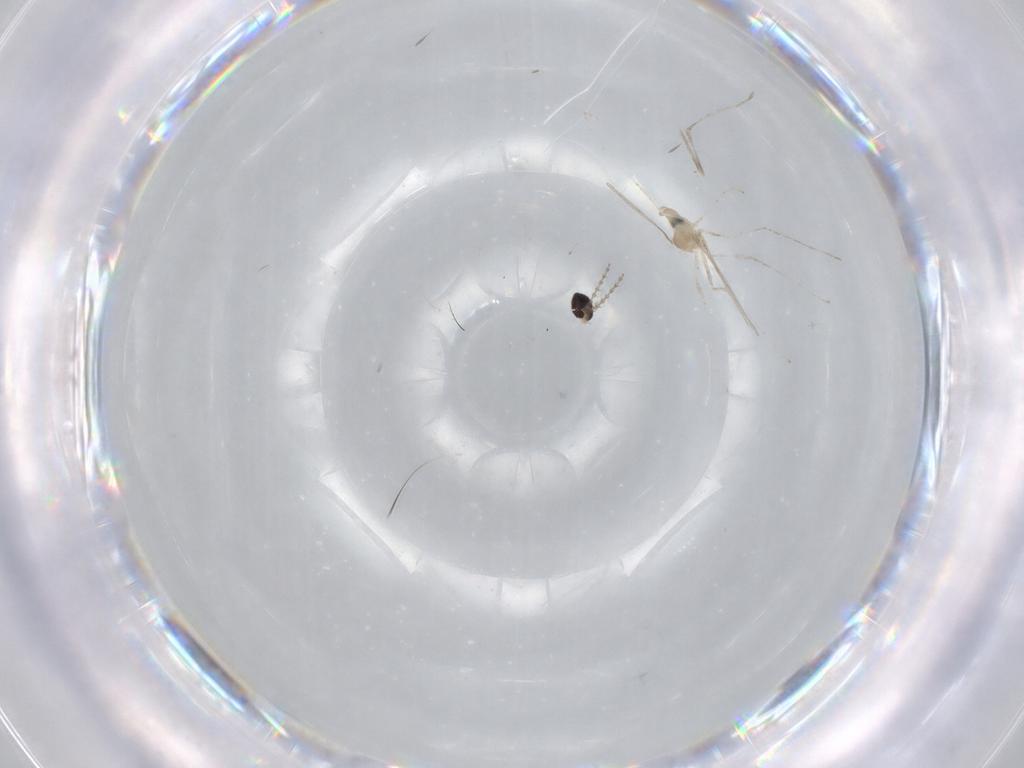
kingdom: Animalia
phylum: Arthropoda
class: Insecta
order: Diptera
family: Cecidomyiidae
